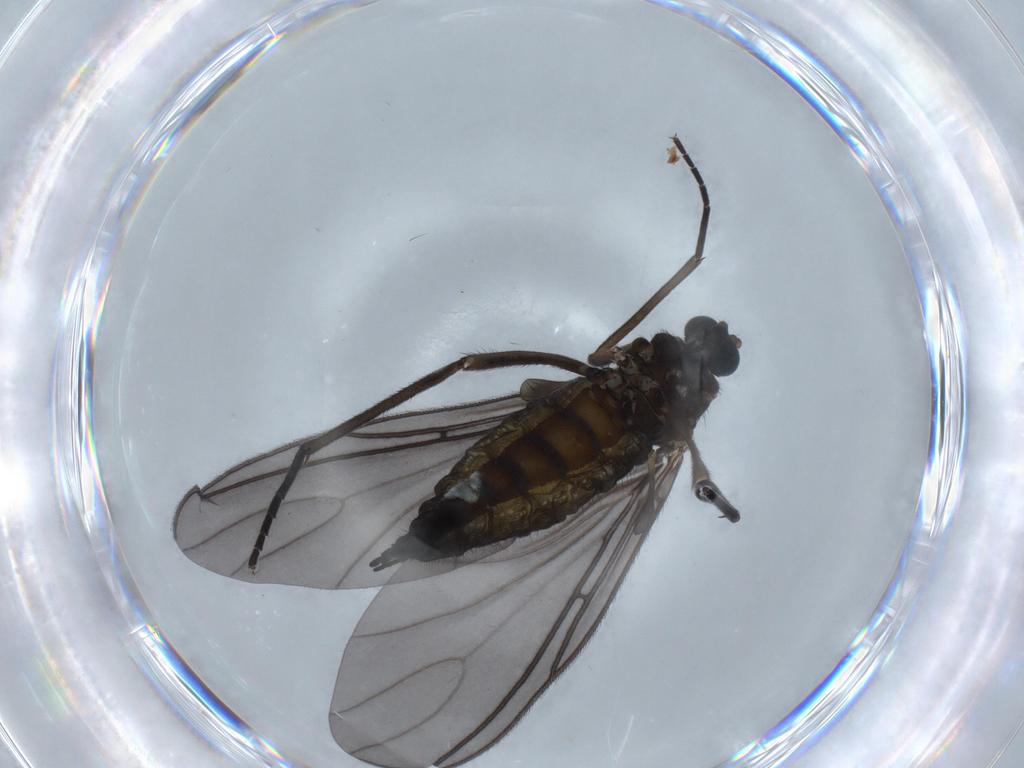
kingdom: Animalia
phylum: Arthropoda
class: Insecta
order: Diptera
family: Sciaridae
